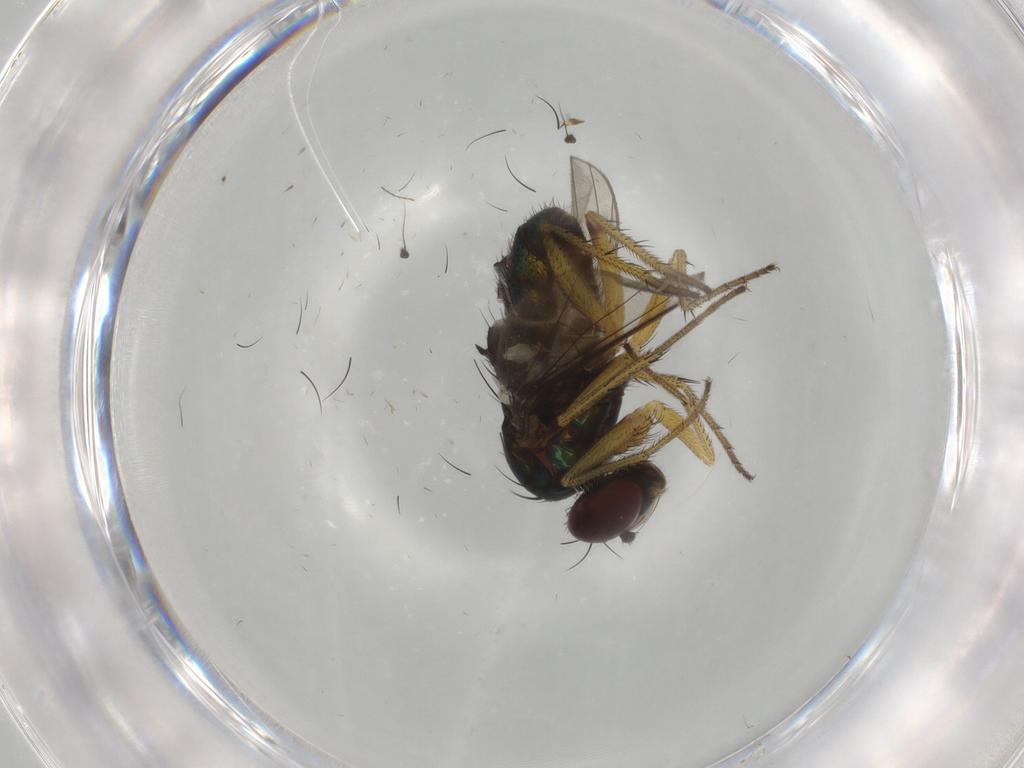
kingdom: Animalia
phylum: Arthropoda
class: Insecta
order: Diptera
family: Dolichopodidae
